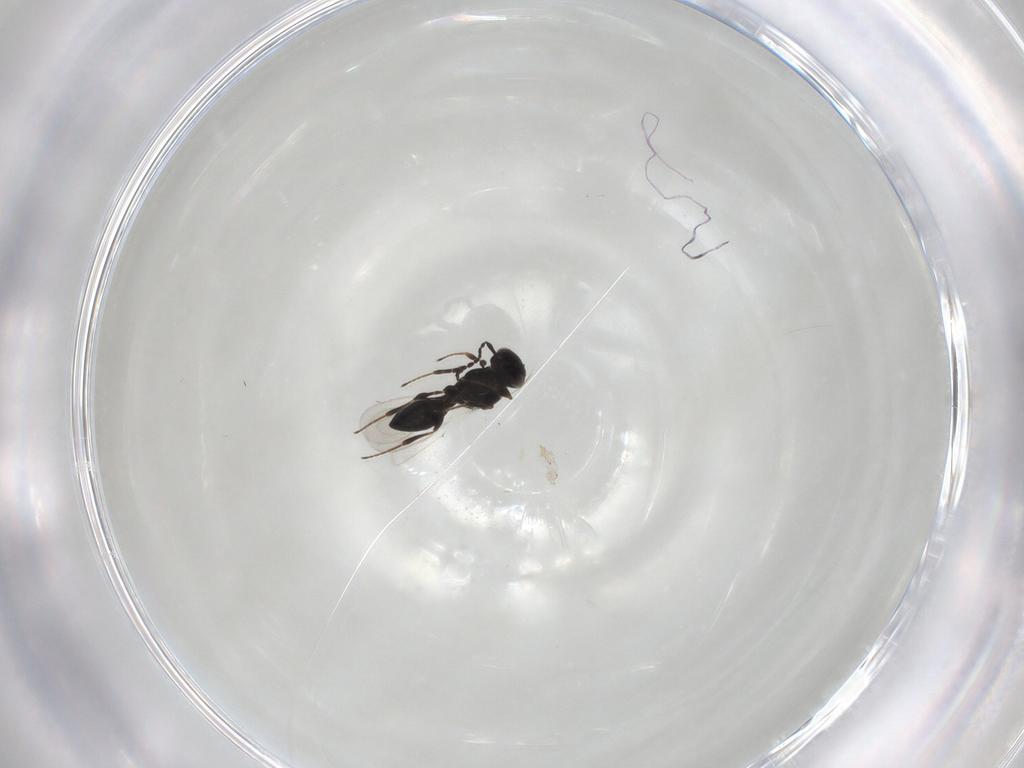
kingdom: Animalia
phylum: Arthropoda
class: Insecta
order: Hymenoptera
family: Platygastridae
